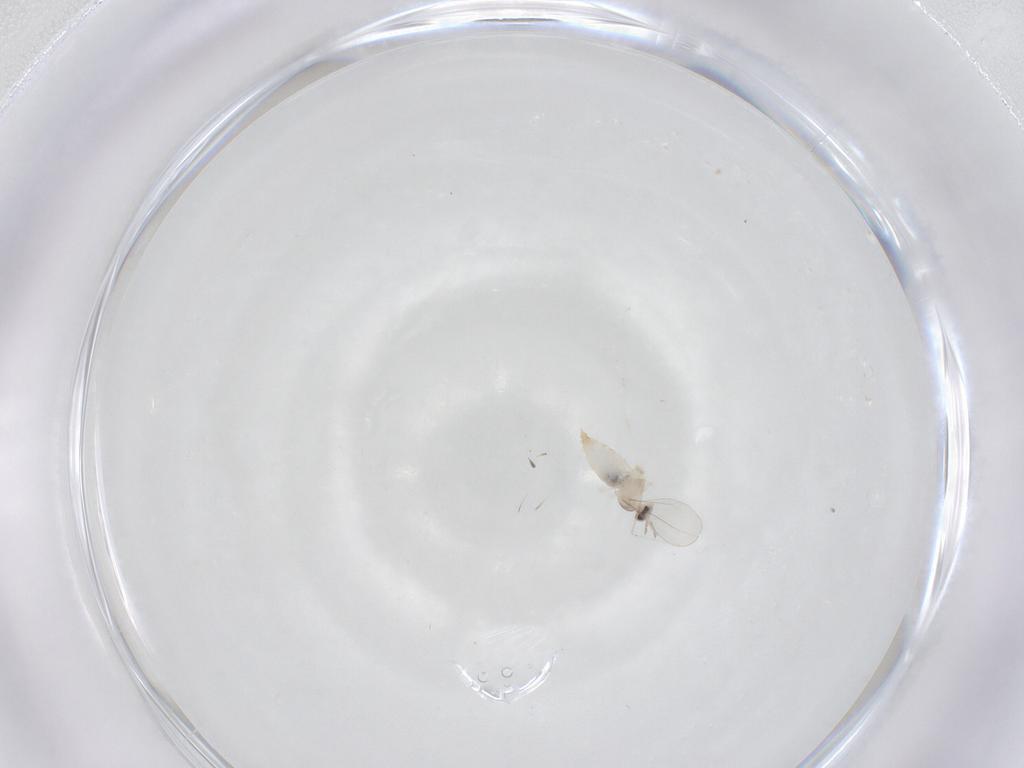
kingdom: Animalia
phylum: Arthropoda
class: Insecta
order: Diptera
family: Cecidomyiidae
